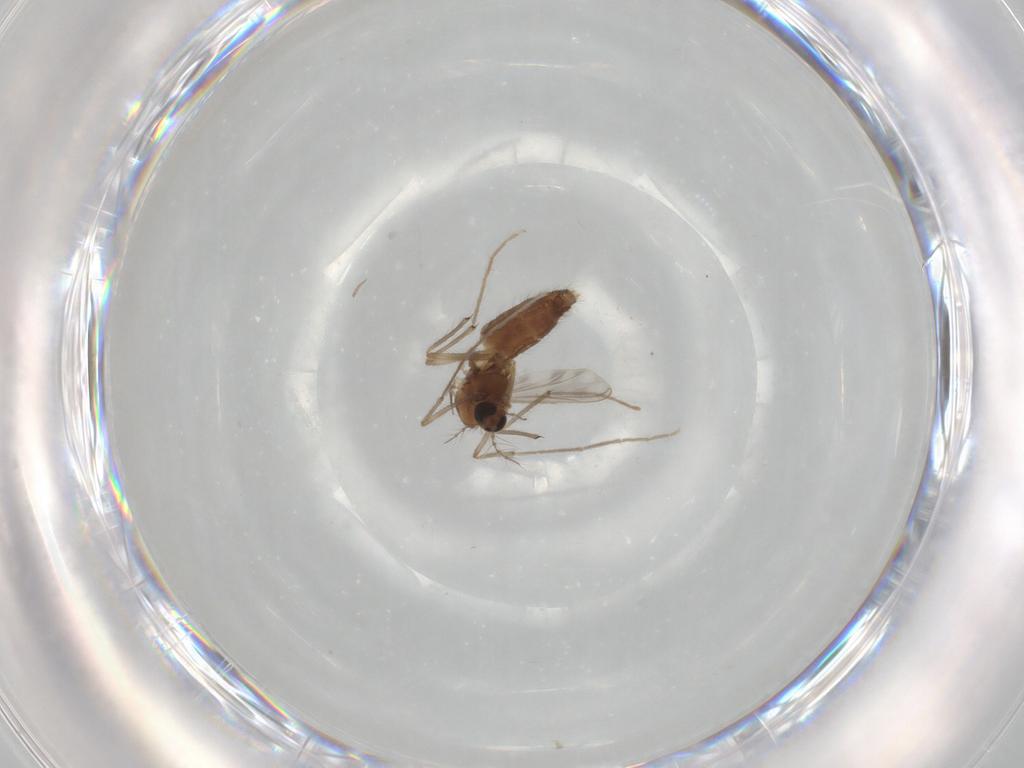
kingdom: Animalia
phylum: Arthropoda
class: Insecta
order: Diptera
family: Chironomidae
